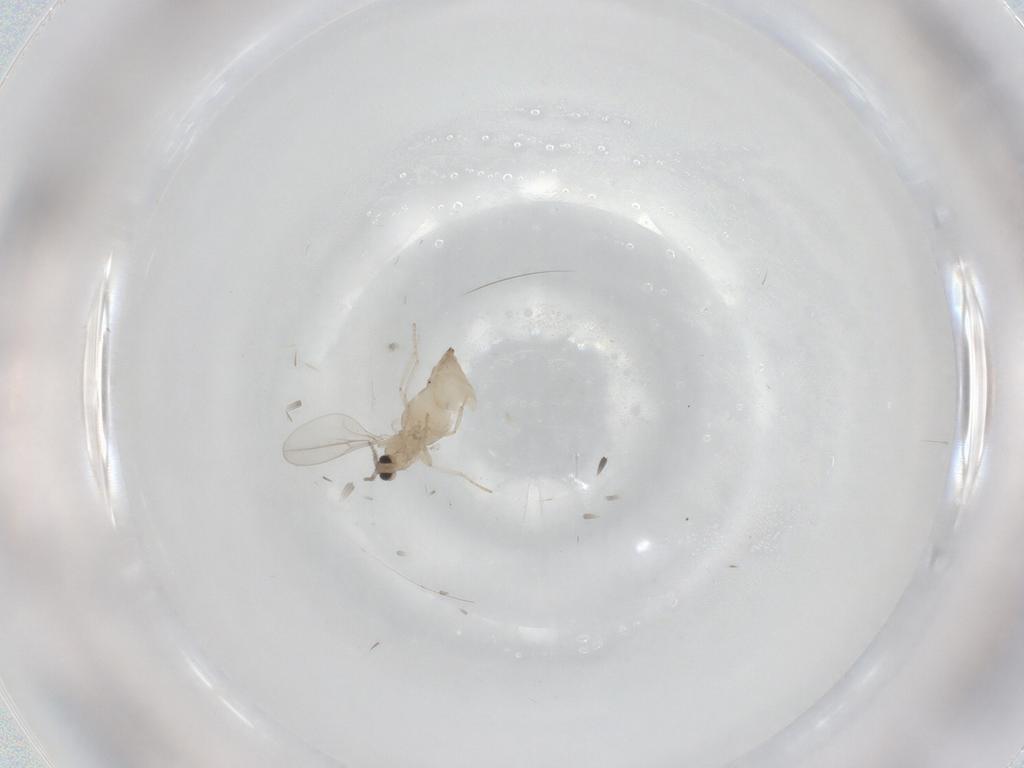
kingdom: Animalia
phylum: Arthropoda
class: Insecta
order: Diptera
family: Cecidomyiidae
